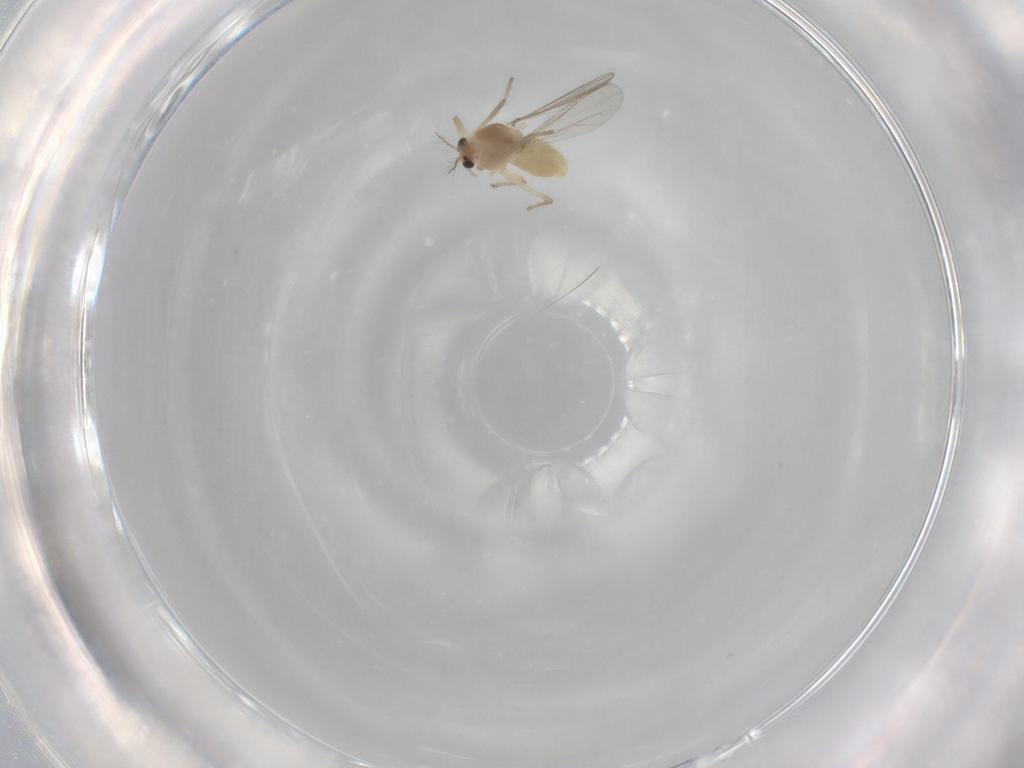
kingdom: Animalia
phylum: Arthropoda
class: Insecta
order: Diptera
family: Chironomidae
